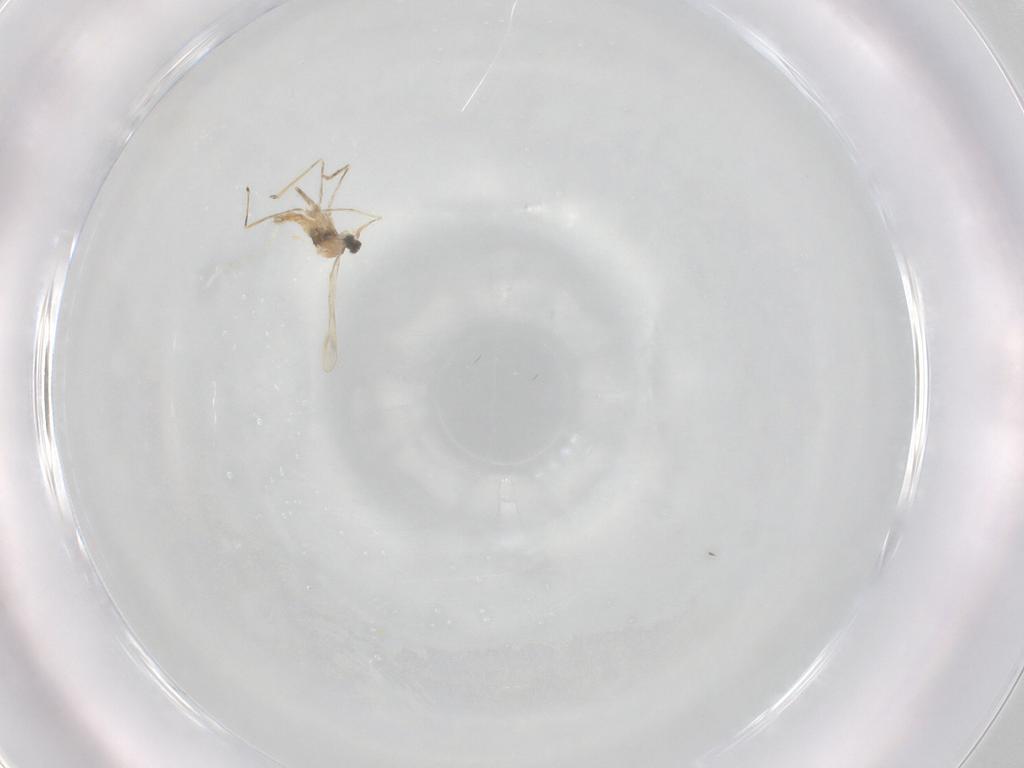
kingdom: Animalia
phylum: Arthropoda
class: Insecta
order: Diptera
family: Cecidomyiidae
